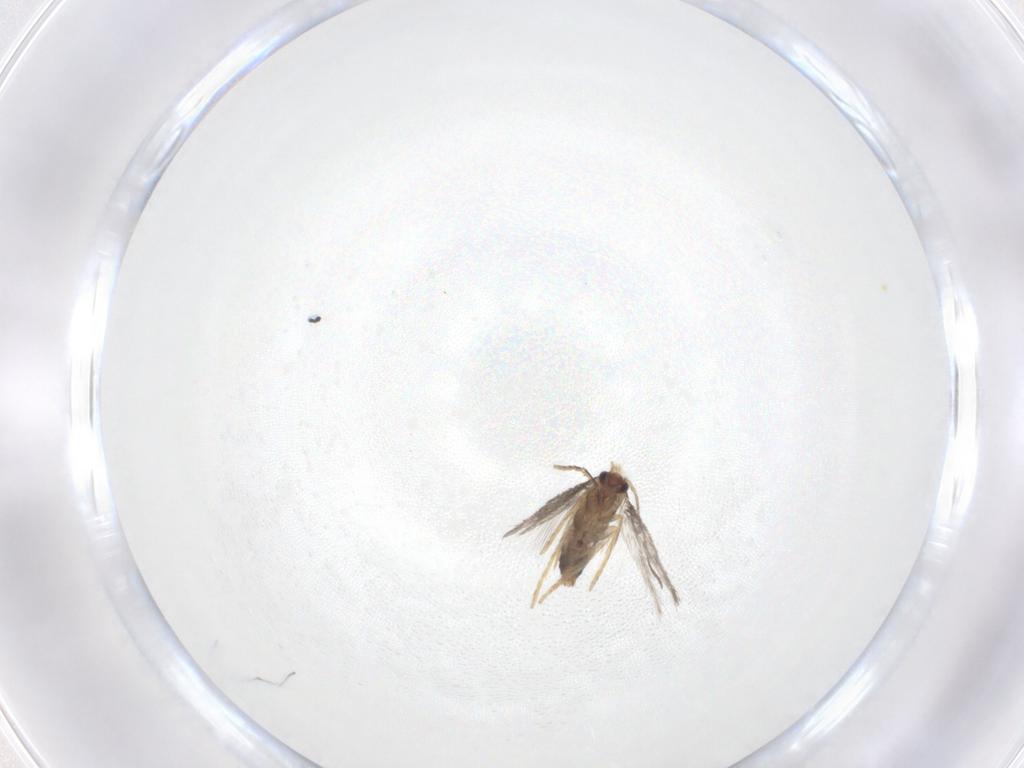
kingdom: Animalia
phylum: Arthropoda
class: Insecta
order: Lepidoptera
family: Nepticulidae
